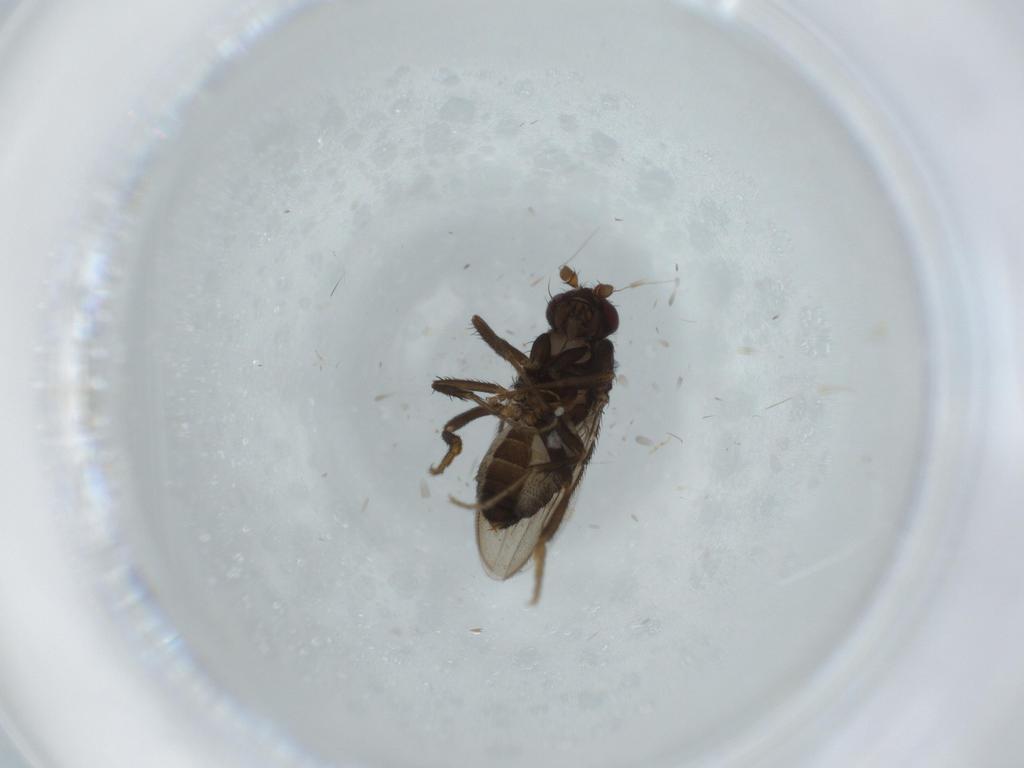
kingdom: Animalia
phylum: Arthropoda
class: Insecta
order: Diptera
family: Sphaeroceridae
